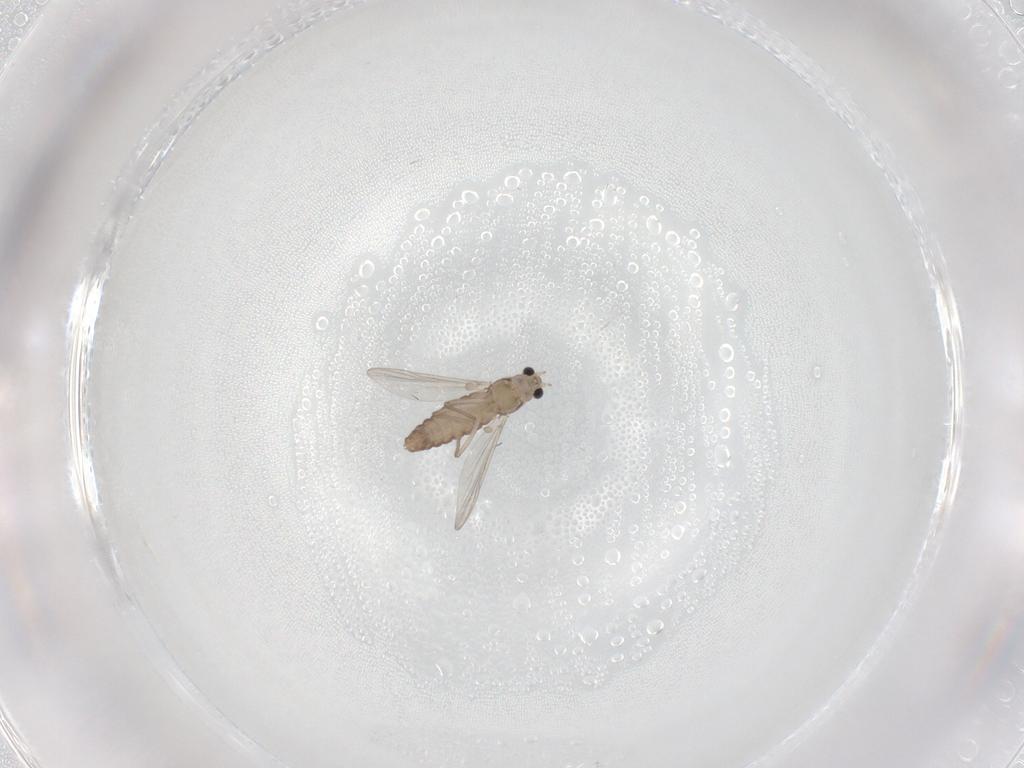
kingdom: Animalia
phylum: Arthropoda
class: Insecta
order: Diptera
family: Chironomidae
